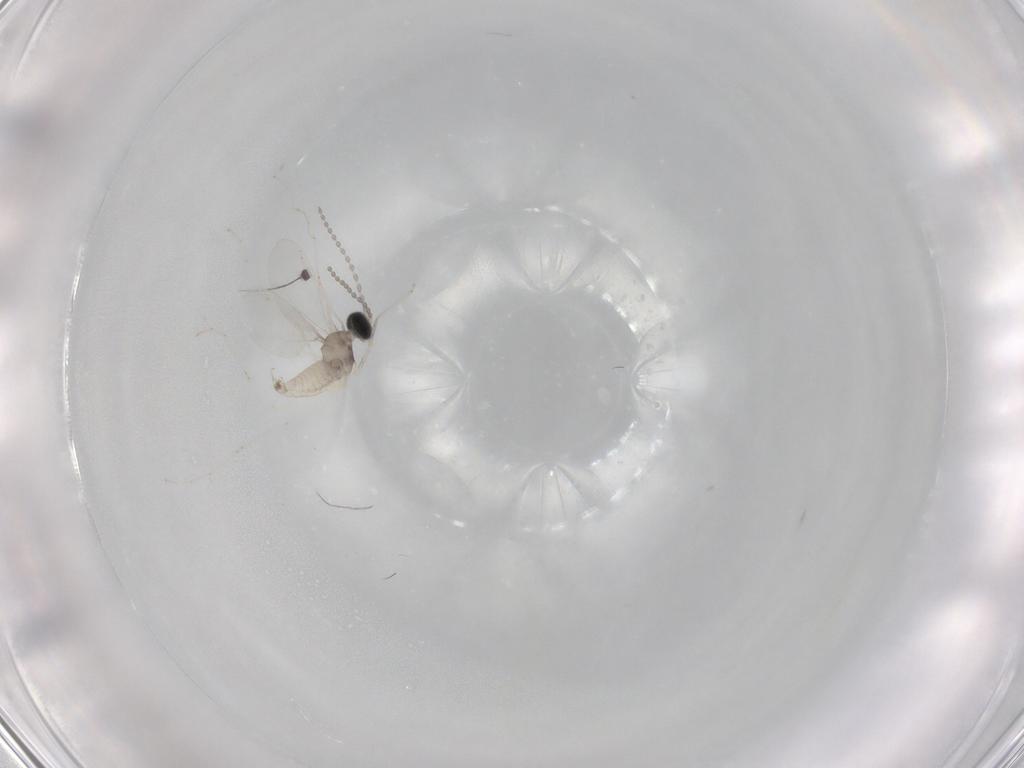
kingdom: Animalia
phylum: Arthropoda
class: Insecta
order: Diptera
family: Cecidomyiidae
